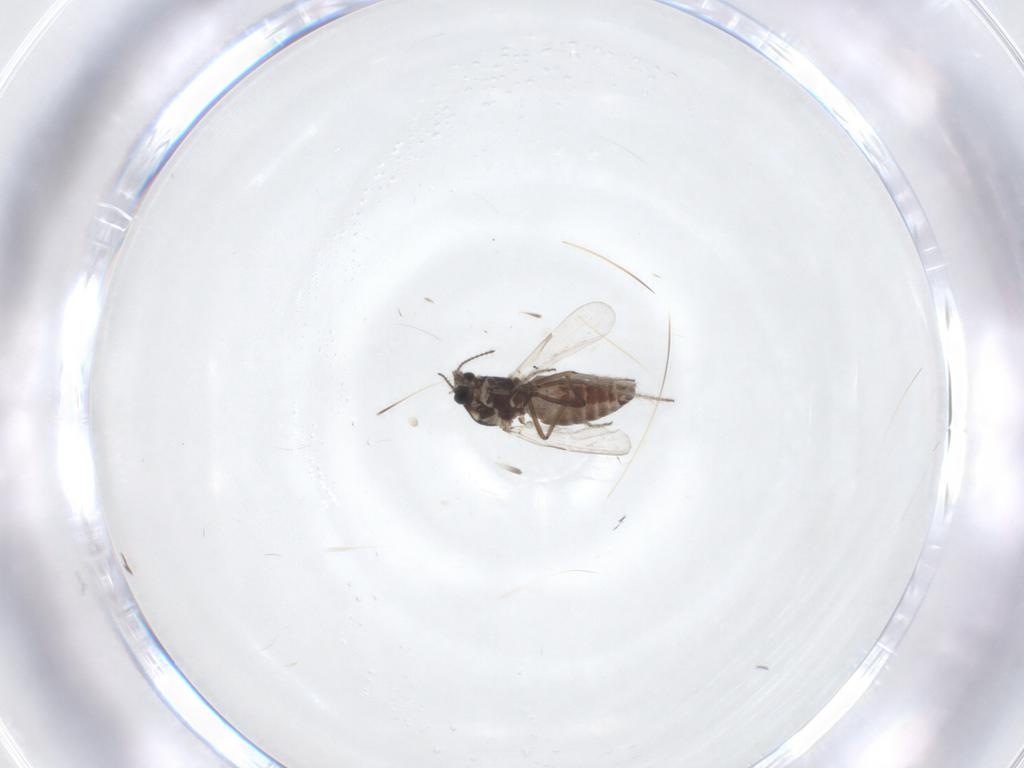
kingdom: Animalia
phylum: Arthropoda
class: Insecta
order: Diptera
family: Ceratopogonidae
